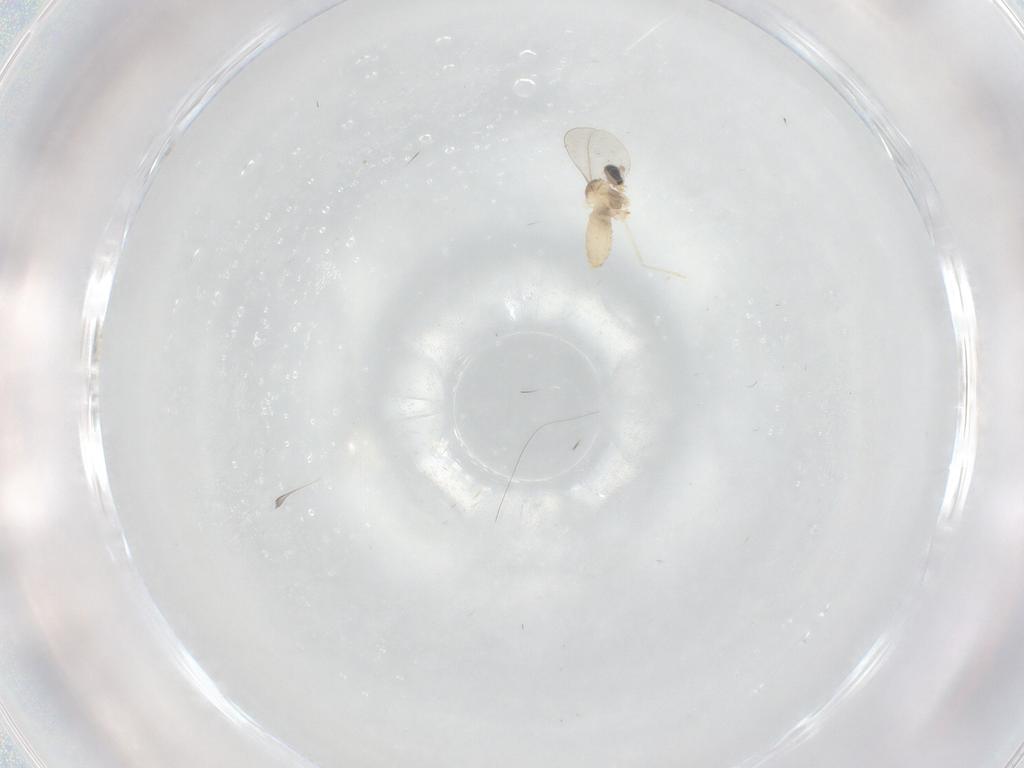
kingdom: Animalia
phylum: Arthropoda
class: Insecta
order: Diptera
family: Cecidomyiidae
